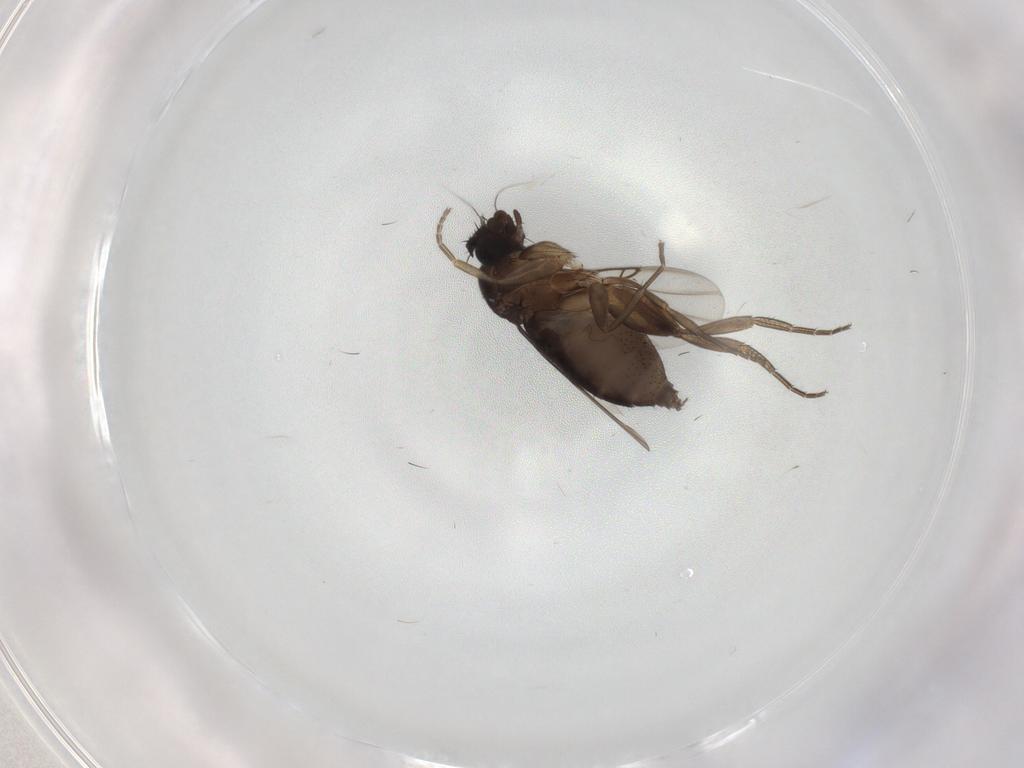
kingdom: Animalia
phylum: Arthropoda
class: Insecta
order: Diptera
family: Phoridae
